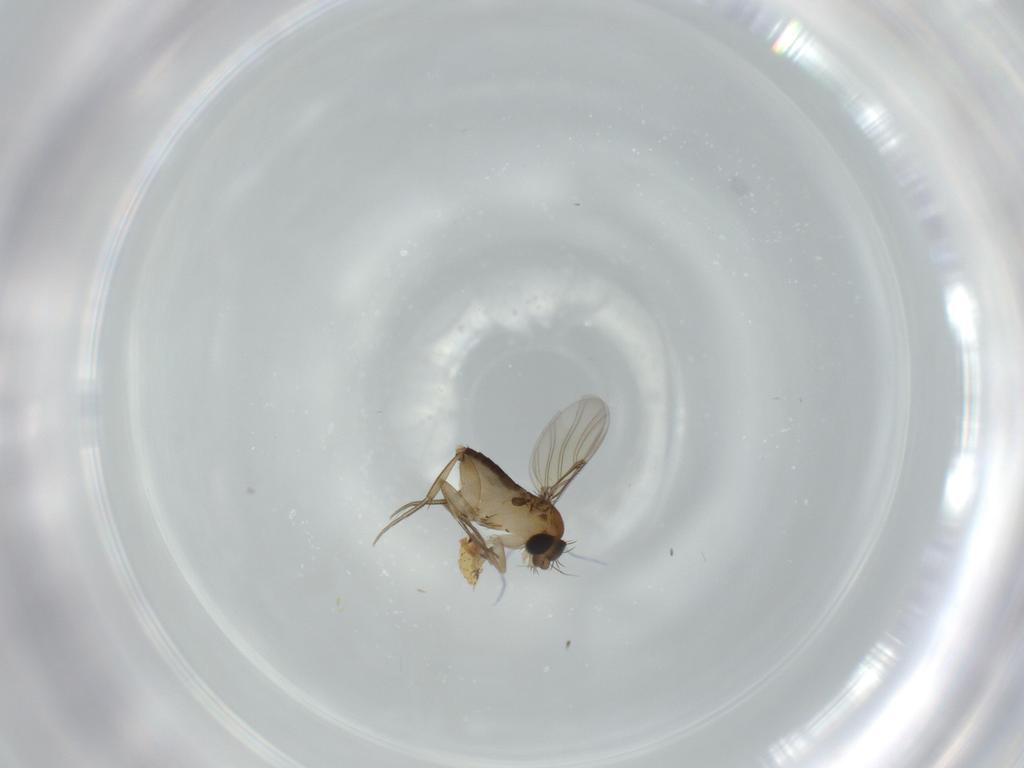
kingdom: Animalia
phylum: Arthropoda
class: Insecta
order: Diptera
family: Phoridae
